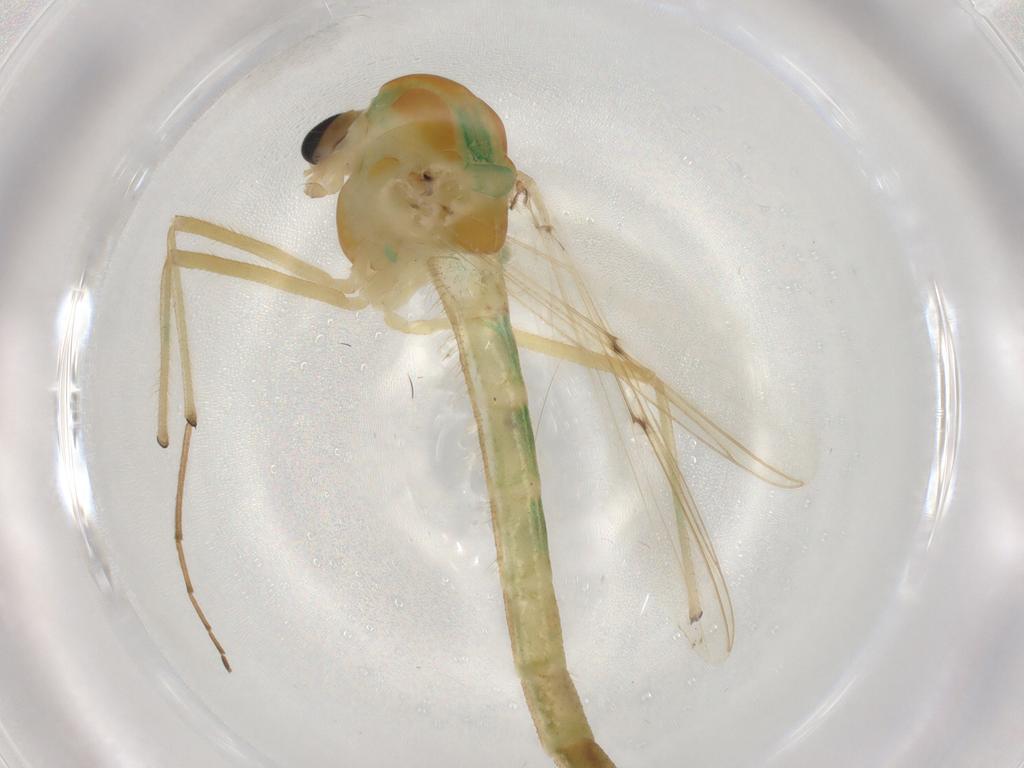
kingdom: Animalia
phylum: Arthropoda
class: Insecta
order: Diptera
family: Chironomidae
